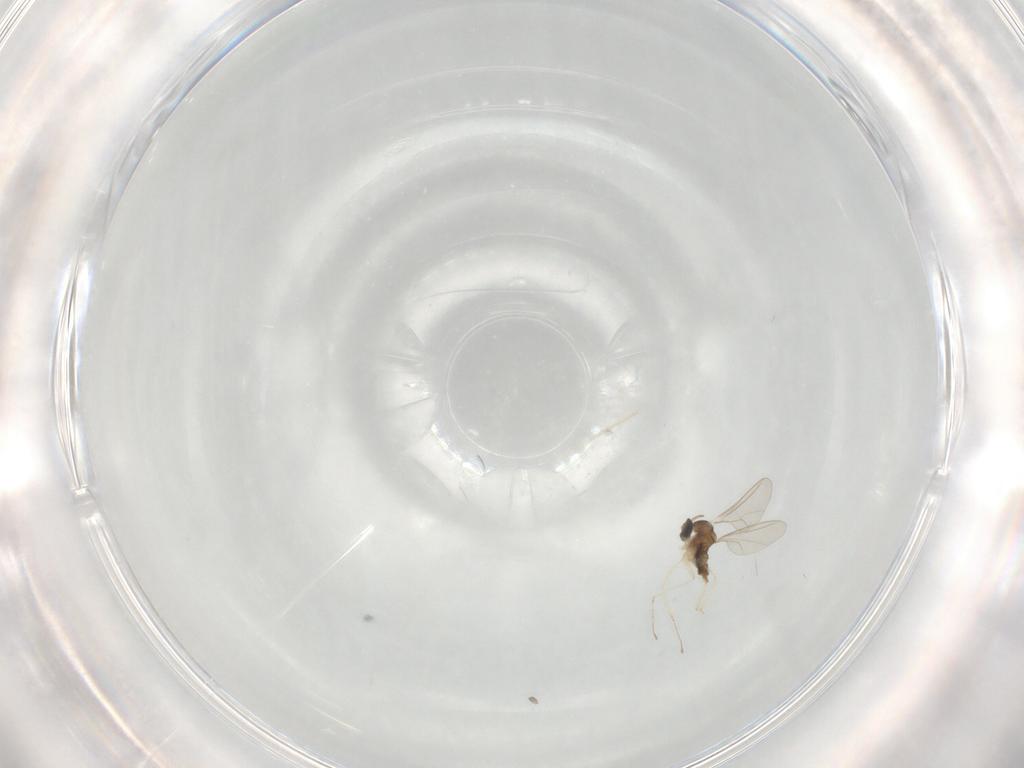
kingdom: Animalia
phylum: Arthropoda
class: Insecta
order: Diptera
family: Cecidomyiidae
